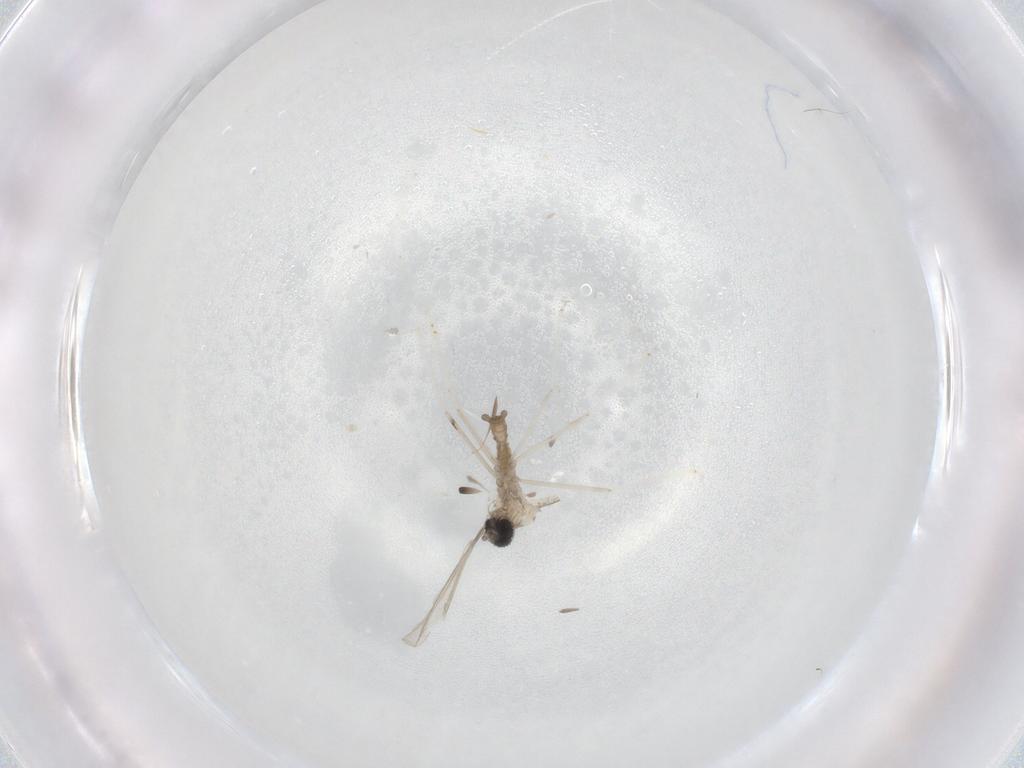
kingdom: Animalia
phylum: Arthropoda
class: Insecta
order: Diptera
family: Cecidomyiidae
